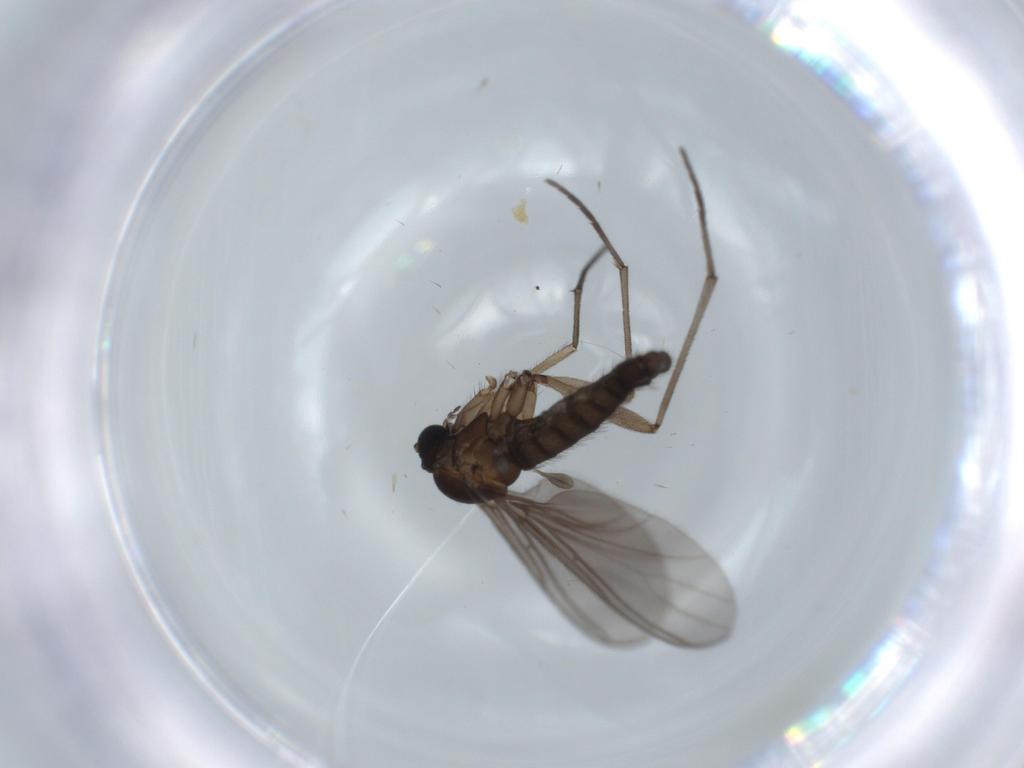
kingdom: Animalia
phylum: Arthropoda
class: Insecta
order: Diptera
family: Sciaridae
